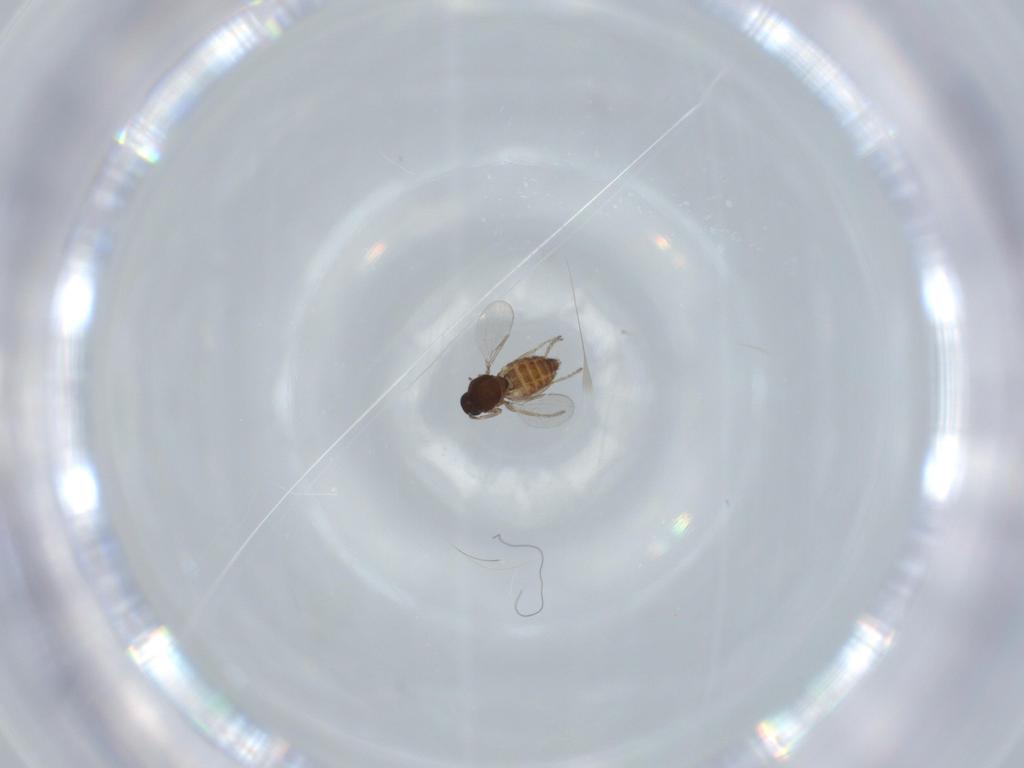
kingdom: Animalia
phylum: Arthropoda
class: Insecta
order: Diptera
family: Ceratopogonidae
